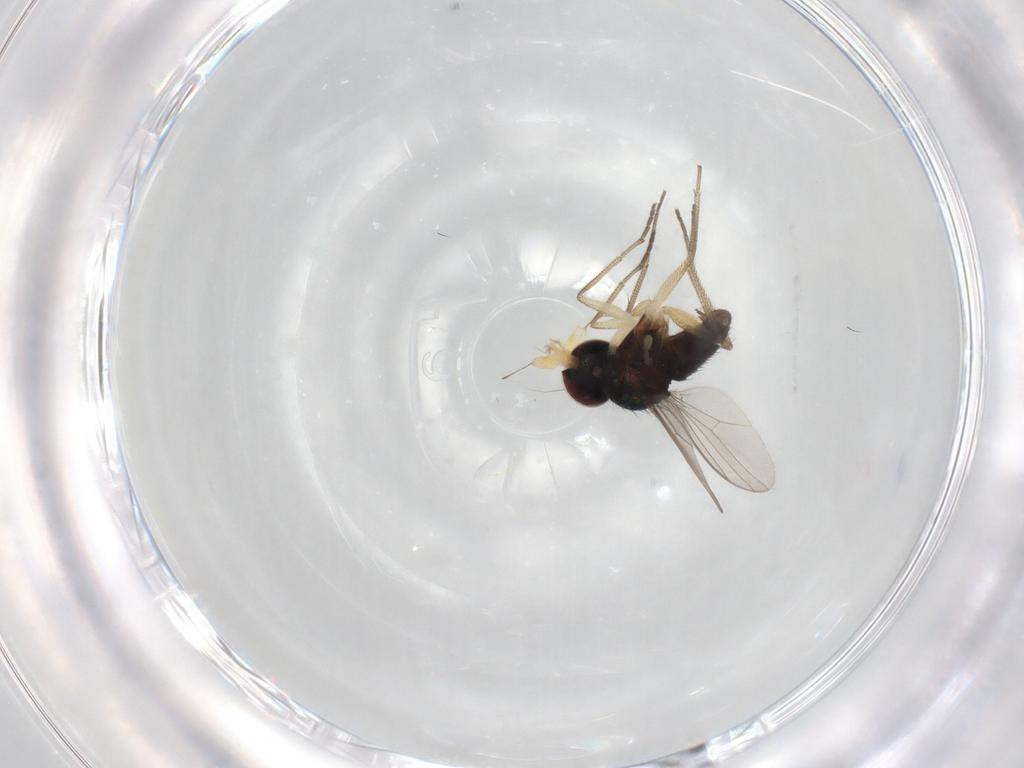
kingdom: Animalia
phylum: Arthropoda
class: Insecta
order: Diptera
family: Dolichopodidae
